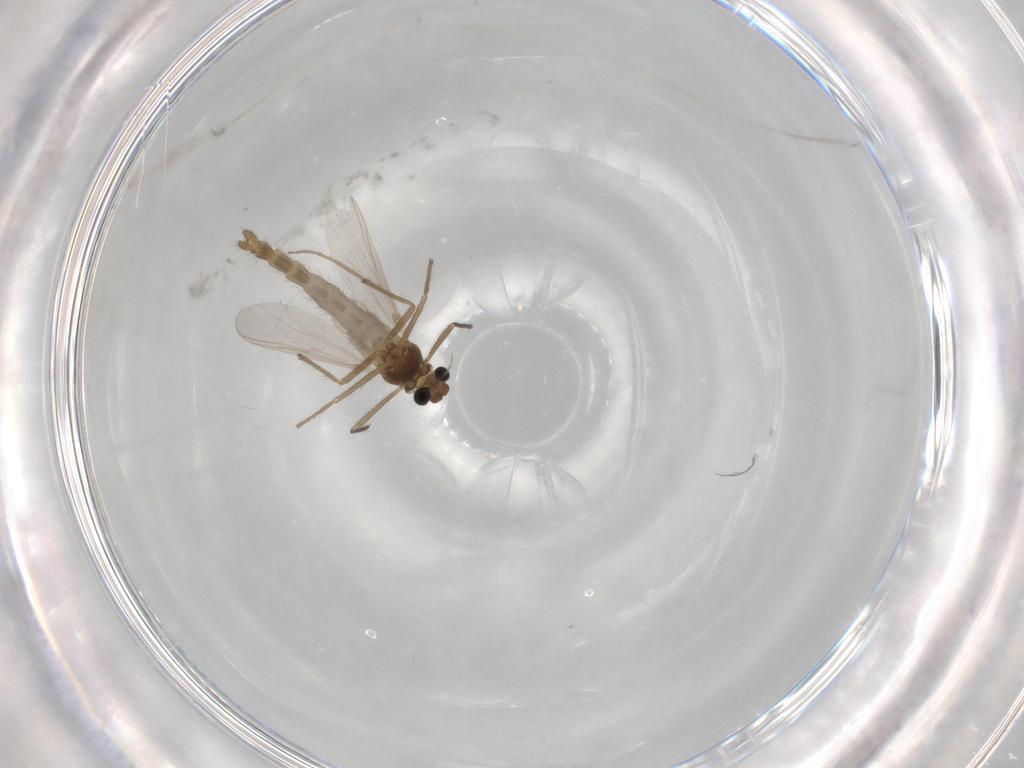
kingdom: Animalia
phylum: Arthropoda
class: Insecta
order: Diptera
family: Chironomidae
